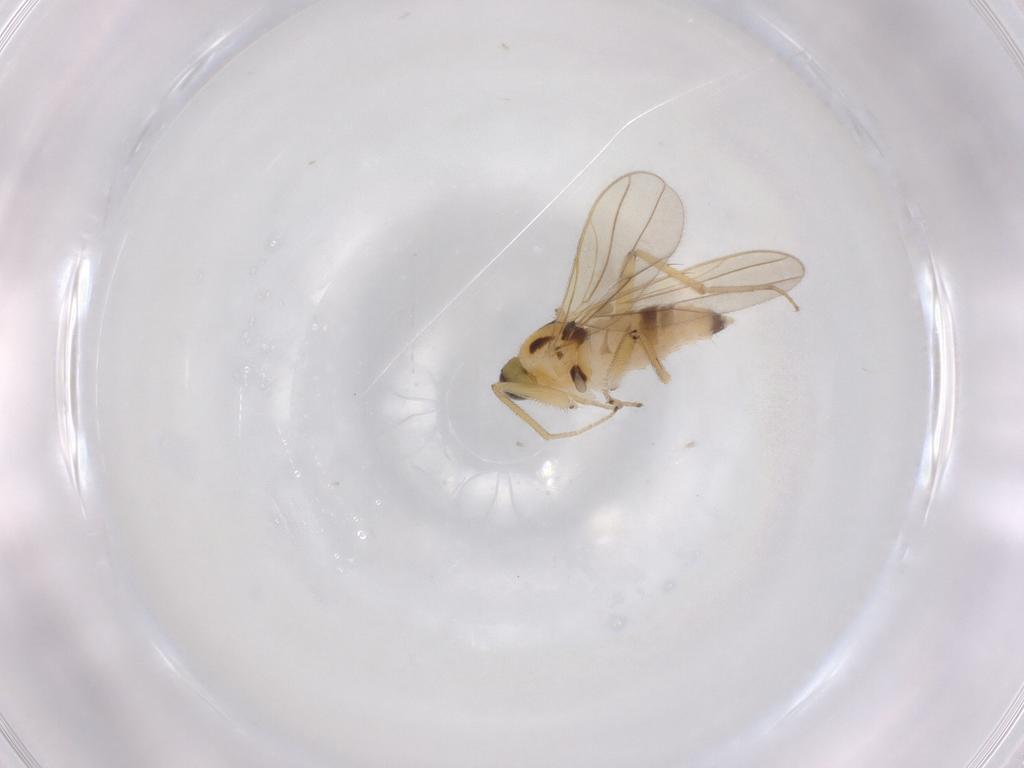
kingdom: Animalia
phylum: Arthropoda
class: Insecta
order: Diptera
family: Hybotidae
